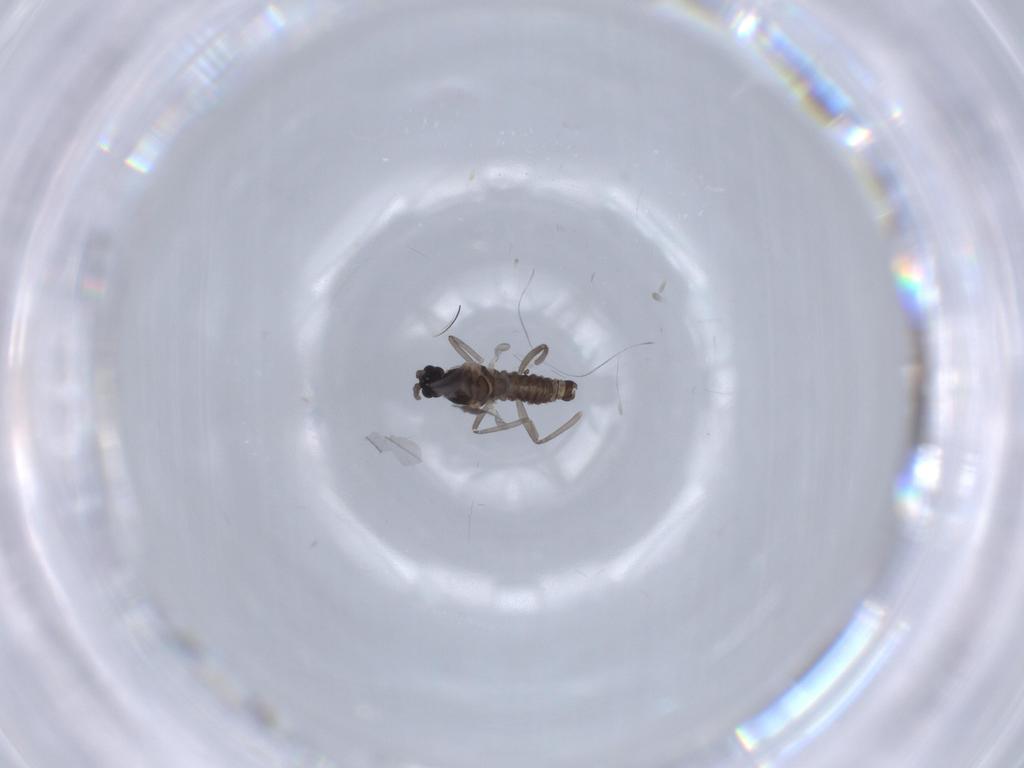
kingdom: Animalia
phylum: Arthropoda
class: Insecta
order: Diptera
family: Cecidomyiidae
